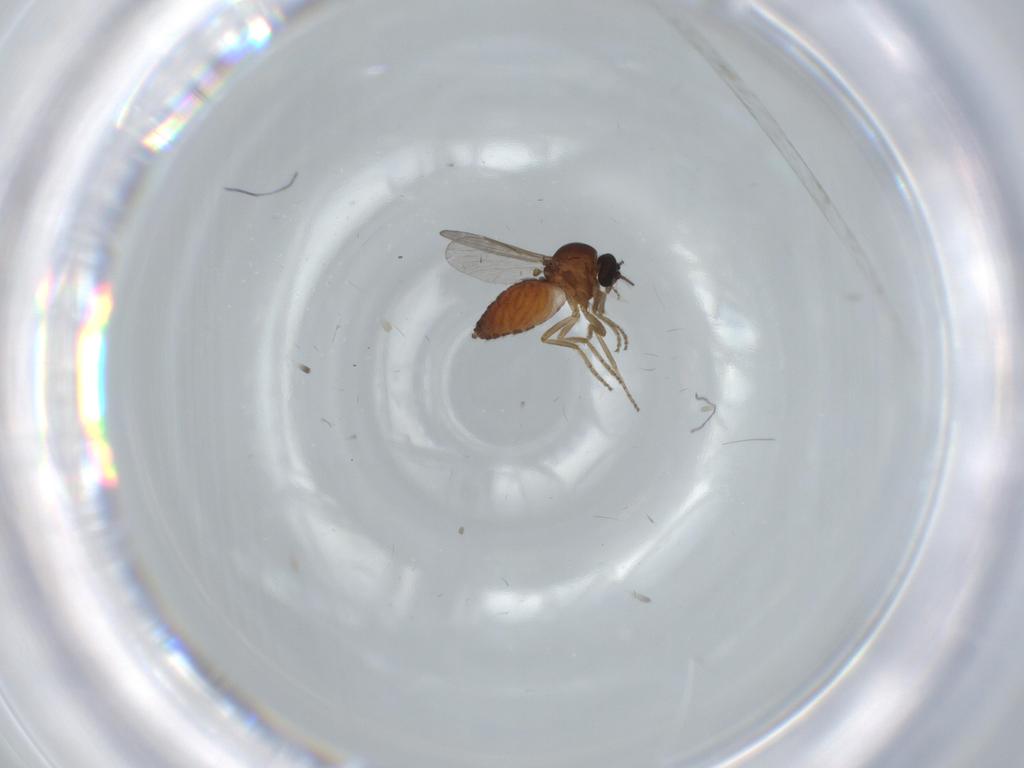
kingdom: Animalia
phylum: Arthropoda
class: Insecta
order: Diptera
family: Ceratopogonidae
